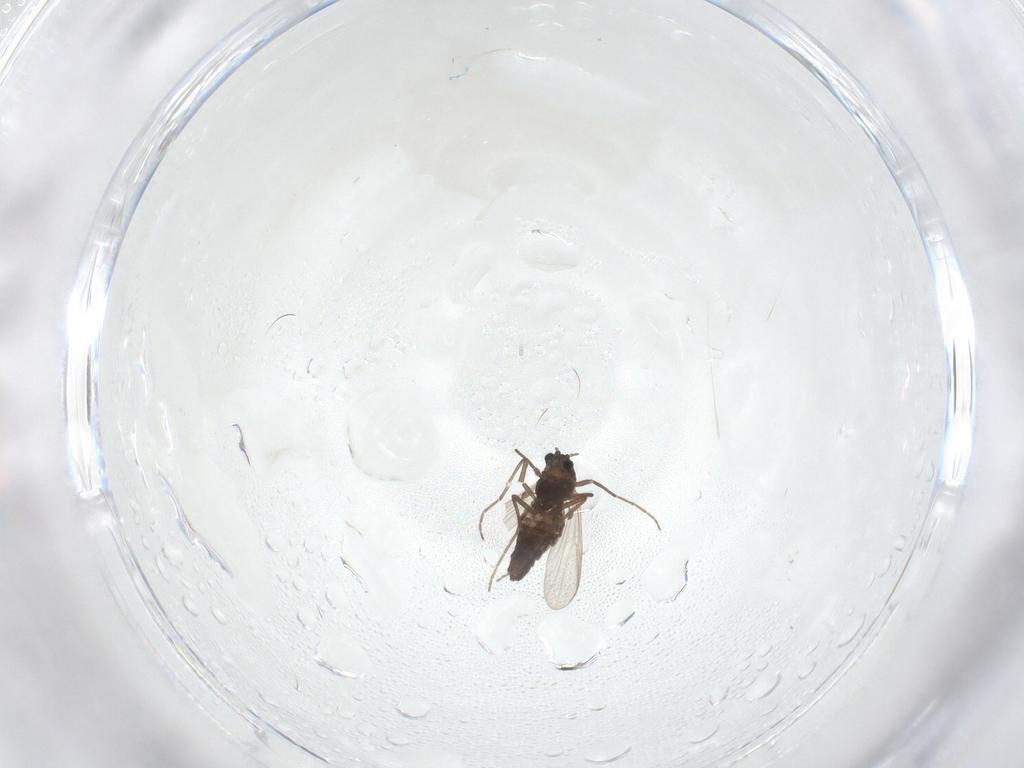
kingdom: Animalia
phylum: Arthropoda
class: Insecta
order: Diptera
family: Chironomidae
